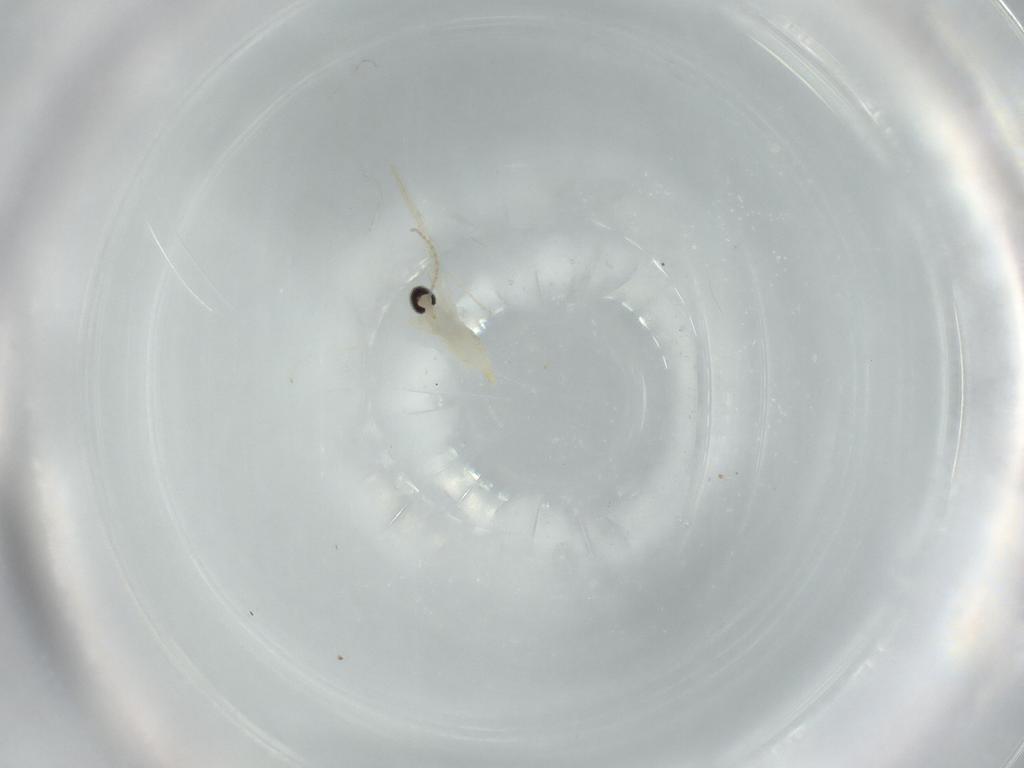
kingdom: Animalia
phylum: Arthropoda
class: Insecta
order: Diptera
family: Cecidomyiidae
